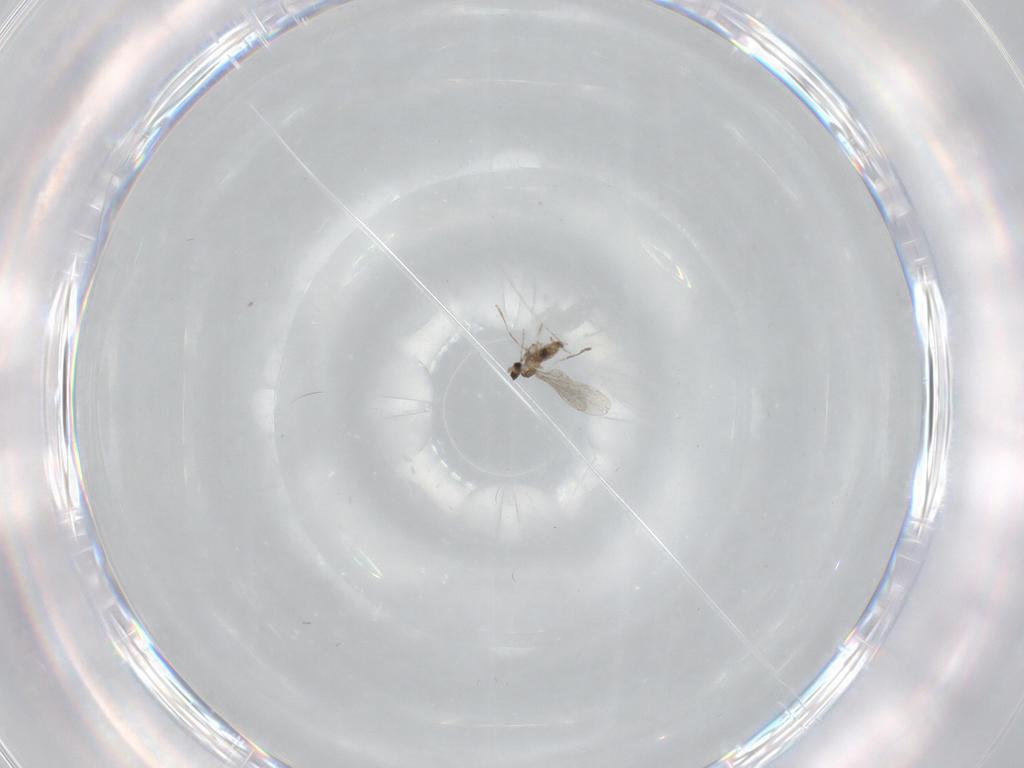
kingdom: Animalia
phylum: Arthropoda
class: Insecta
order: Diptera
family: Cecidomyiidae
